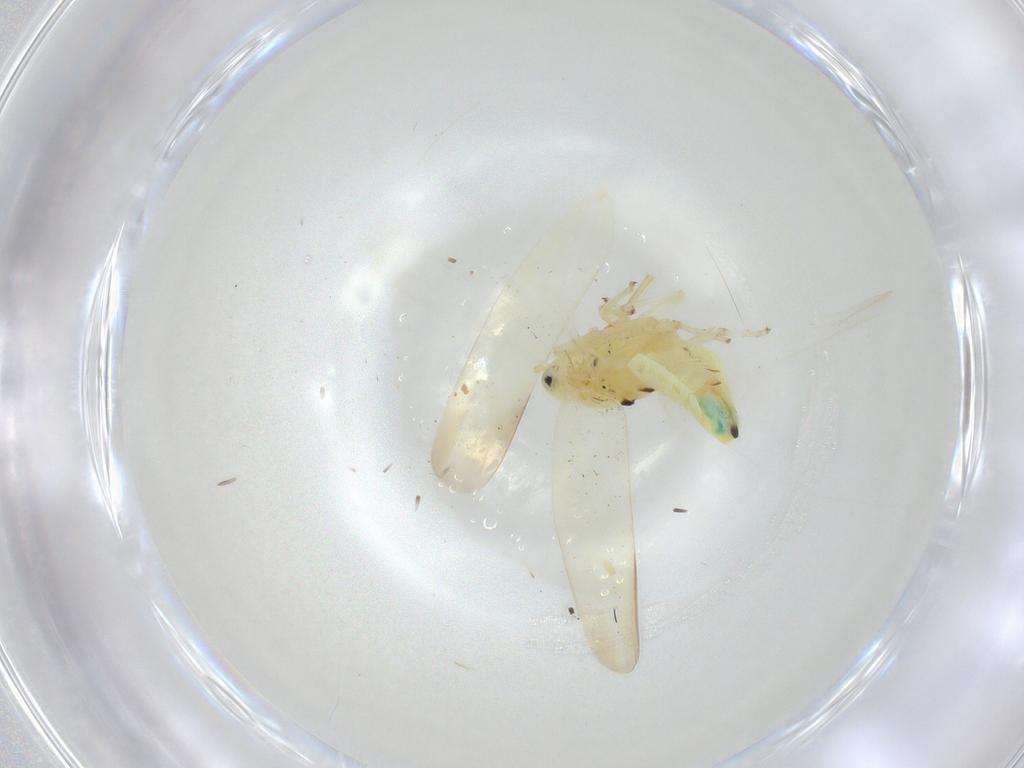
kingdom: Animalia
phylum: Arthropoda
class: Insecta
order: Hemiptera
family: Cicadellidae
